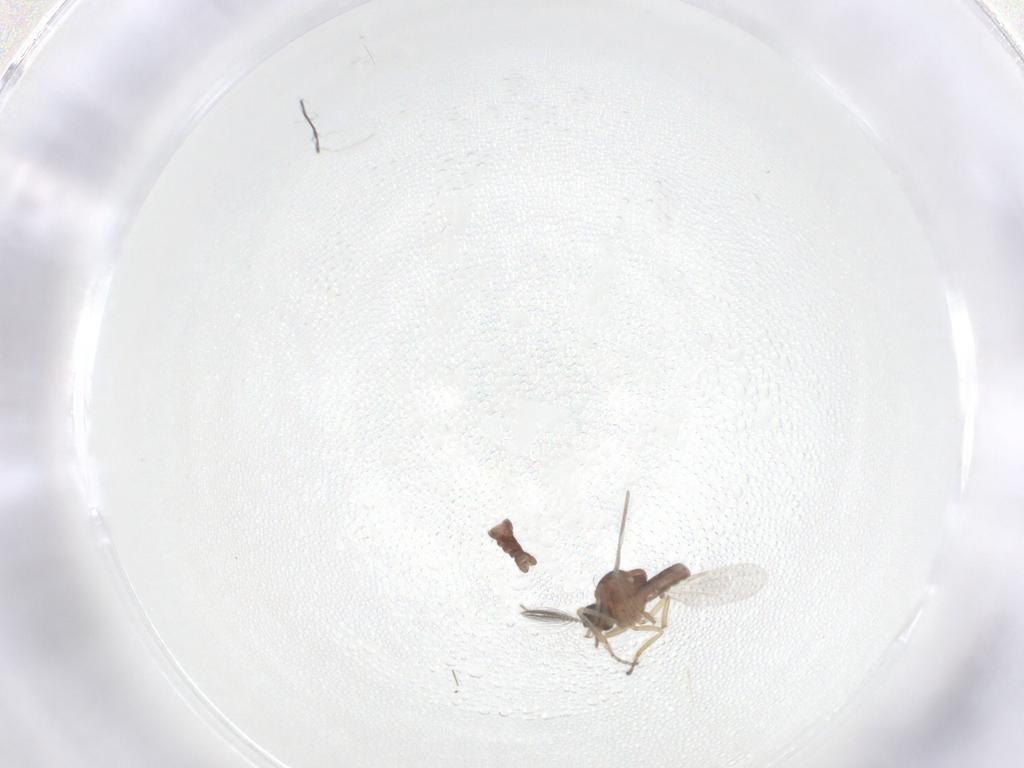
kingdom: Animalia
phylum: Arthropoda
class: Insecta
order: Diptera
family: Ceratopogonidae
